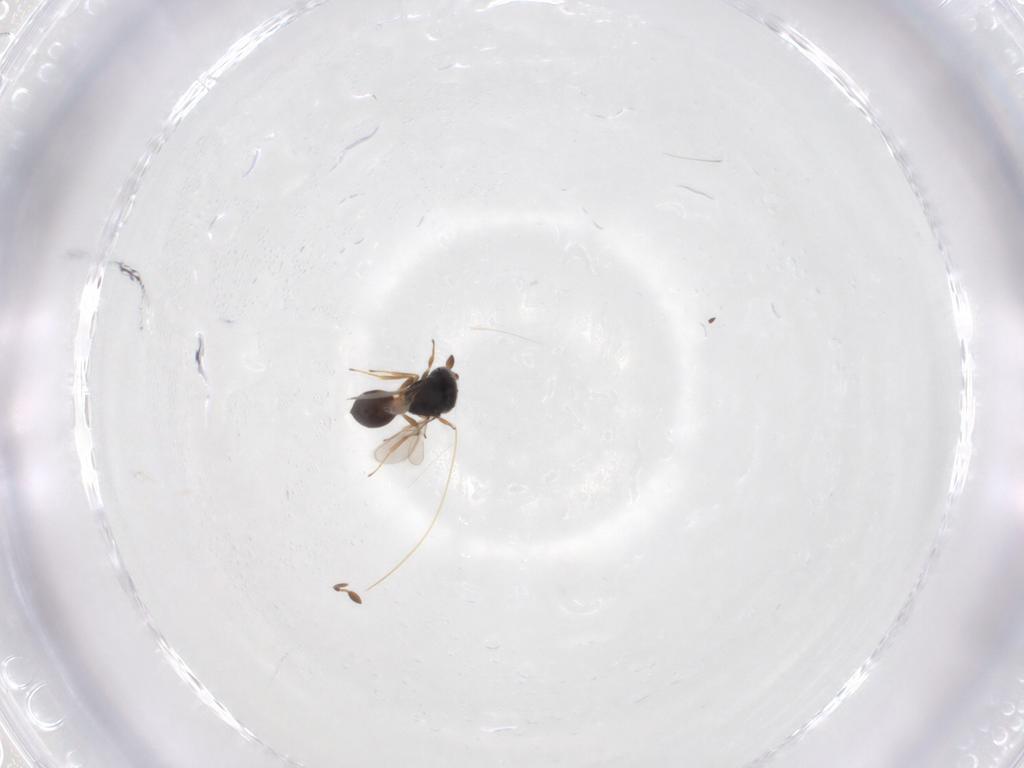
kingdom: Animalia
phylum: Arthropoda
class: Insecta
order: Hymenoptera
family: Scelionidae
